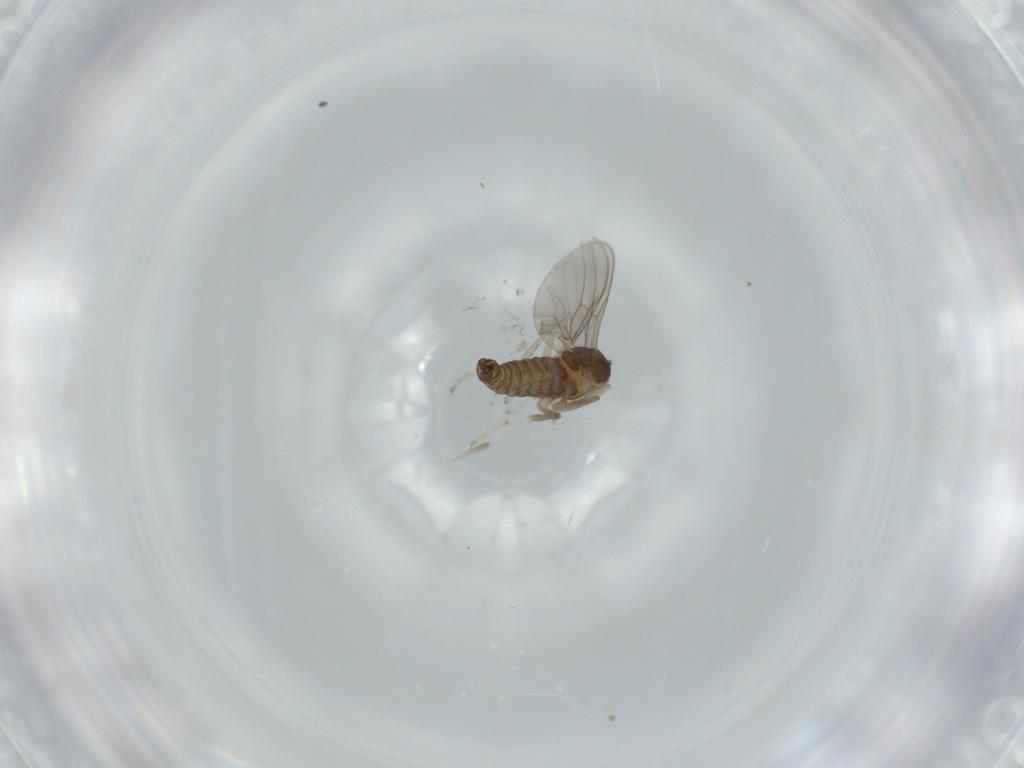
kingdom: Animalia
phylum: Arthropoda
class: Insecta
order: Diptera
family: Cecidomyiidae
